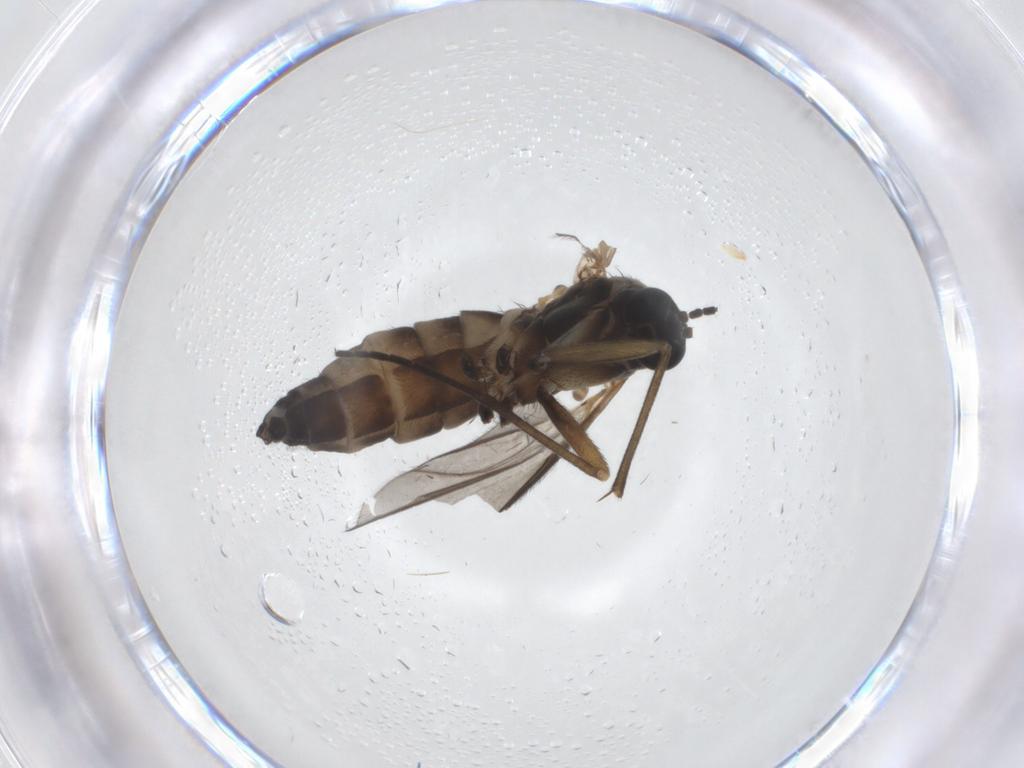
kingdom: Animalia
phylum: Arthropoda
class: Insecta
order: Diptera
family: Sciaridae
